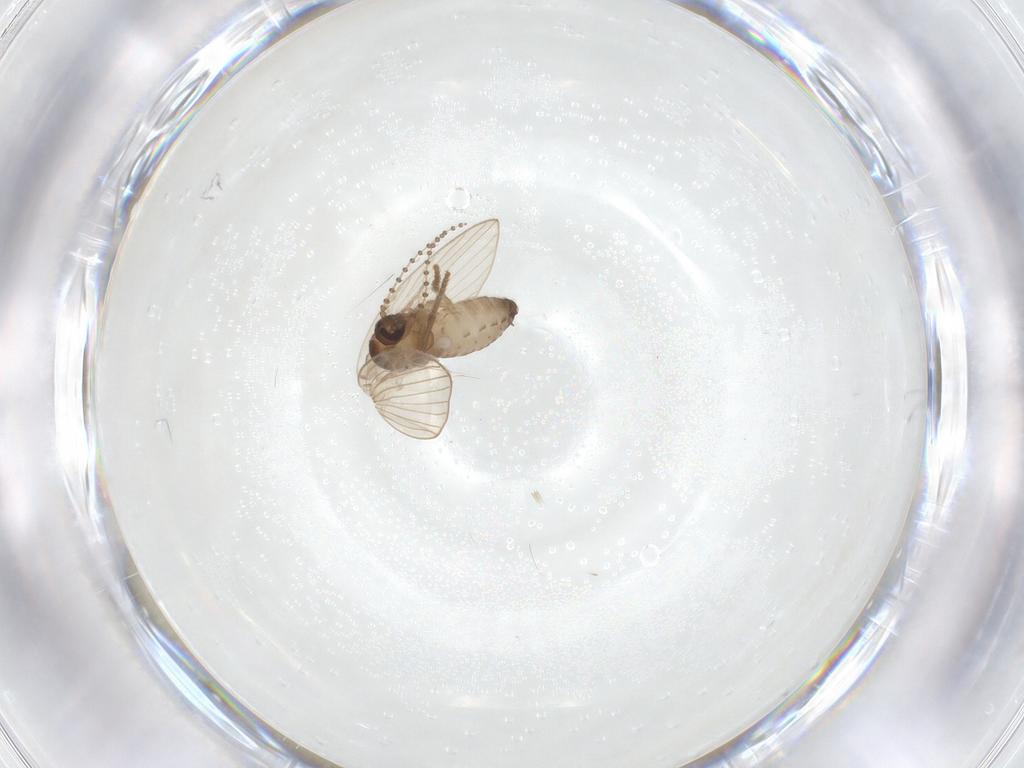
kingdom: Animalia
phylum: Arthropoda
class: Insecta
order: Diptera
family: Psychodidae
